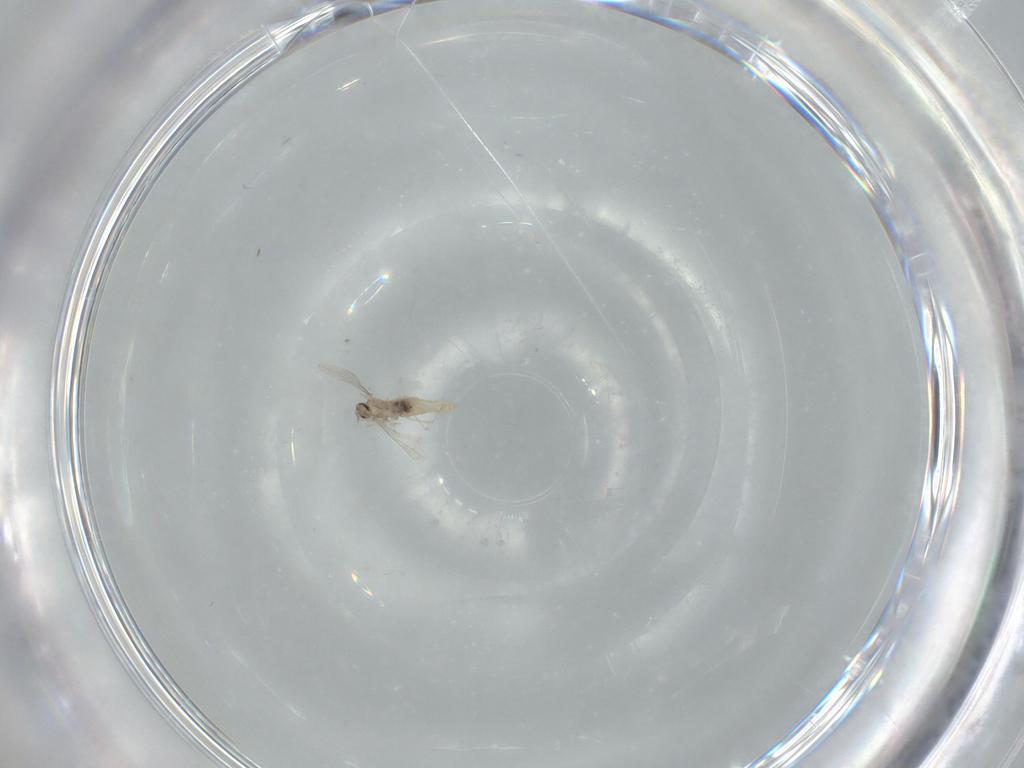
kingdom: Animalia
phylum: Arthropoda
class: Insecta
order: Diptera
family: Cecidomyiidae
